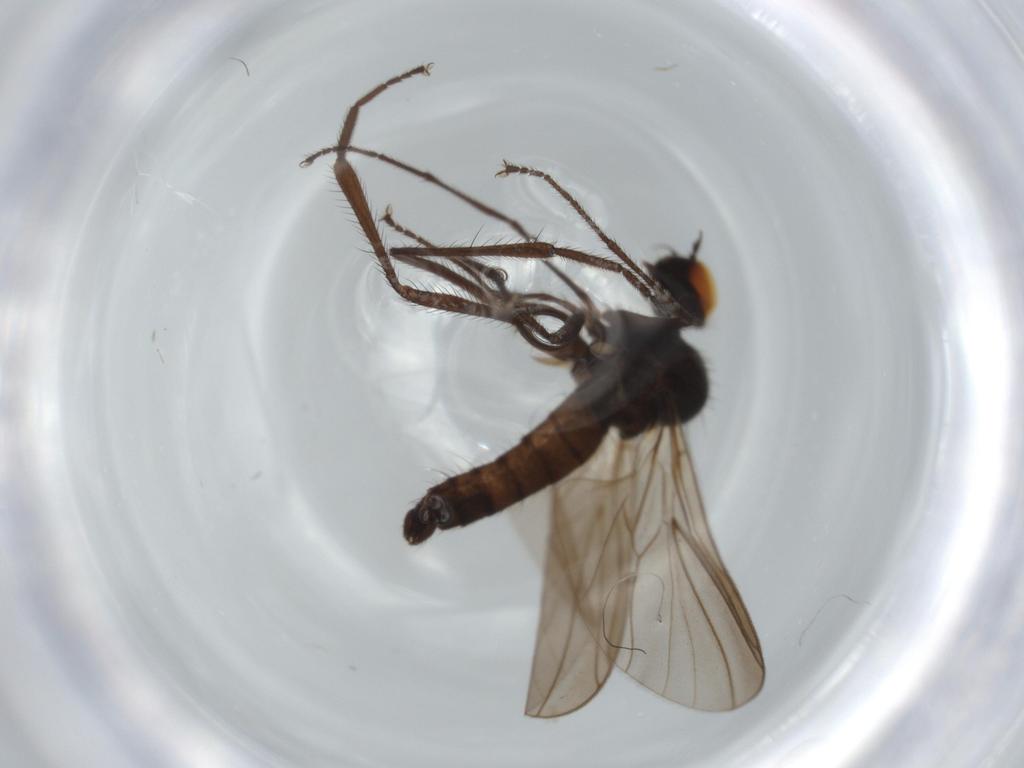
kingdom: Animalia
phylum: Arthropoda
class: Insecta
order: Diptera
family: Hybotidae
